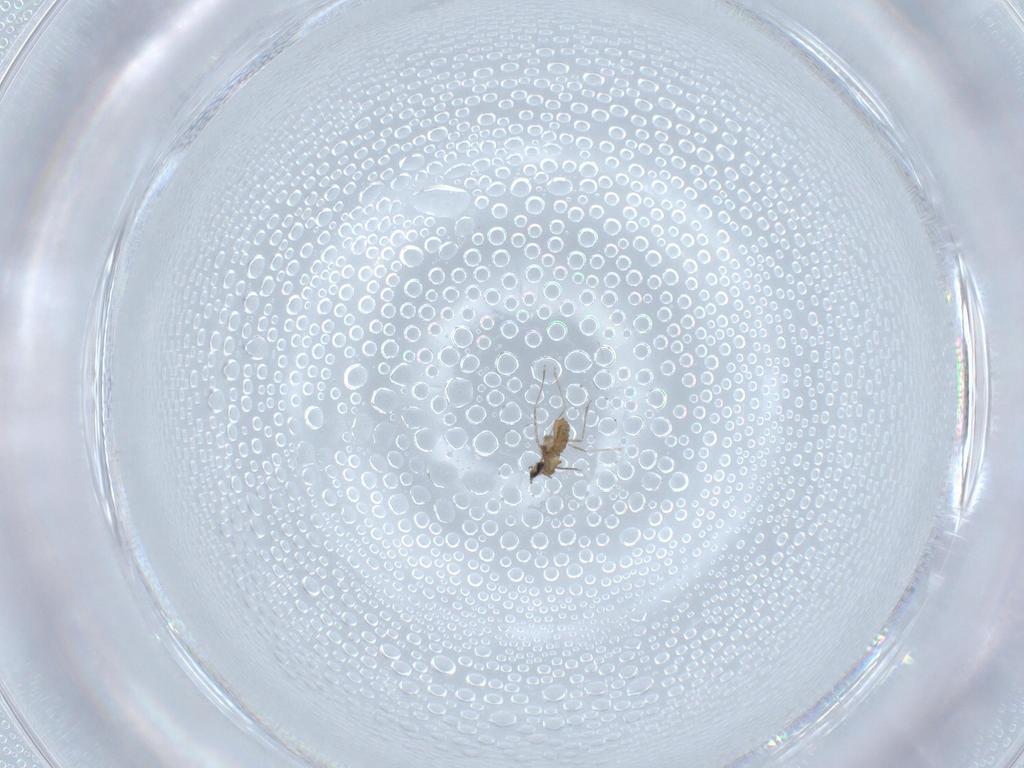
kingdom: Animalia
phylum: Arthropoda
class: Insecta
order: Diptera
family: Cecidomyiidae
